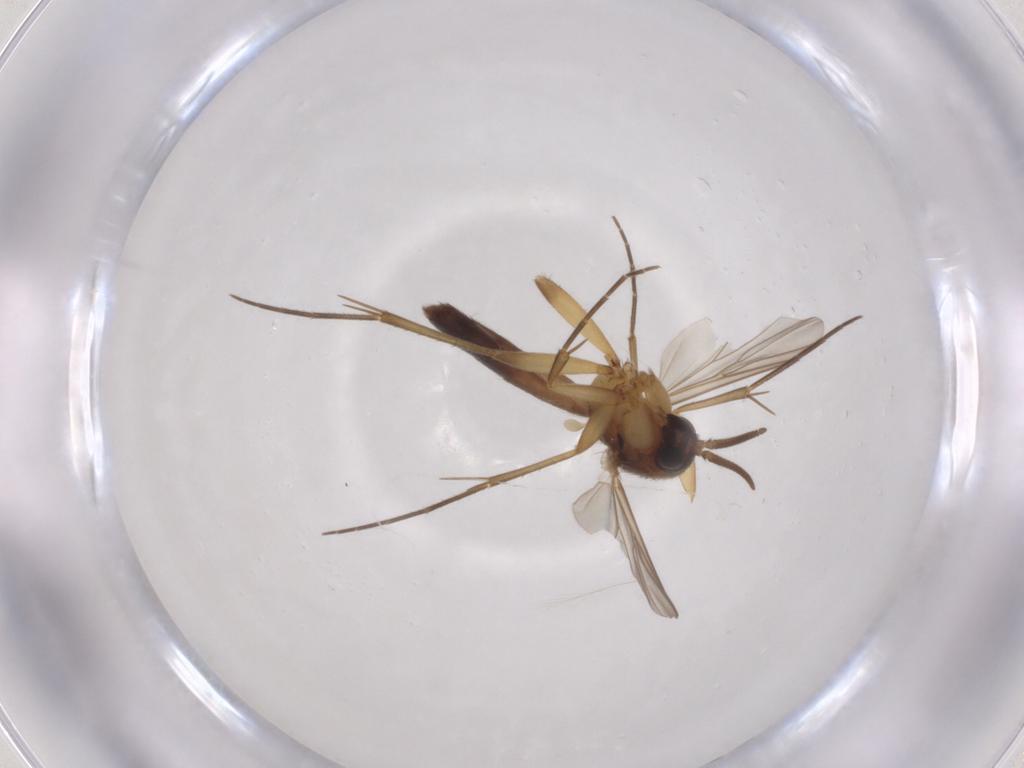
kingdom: Animalia
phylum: Arthropoda
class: Insecta
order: Diptera
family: Mycetophilidae
